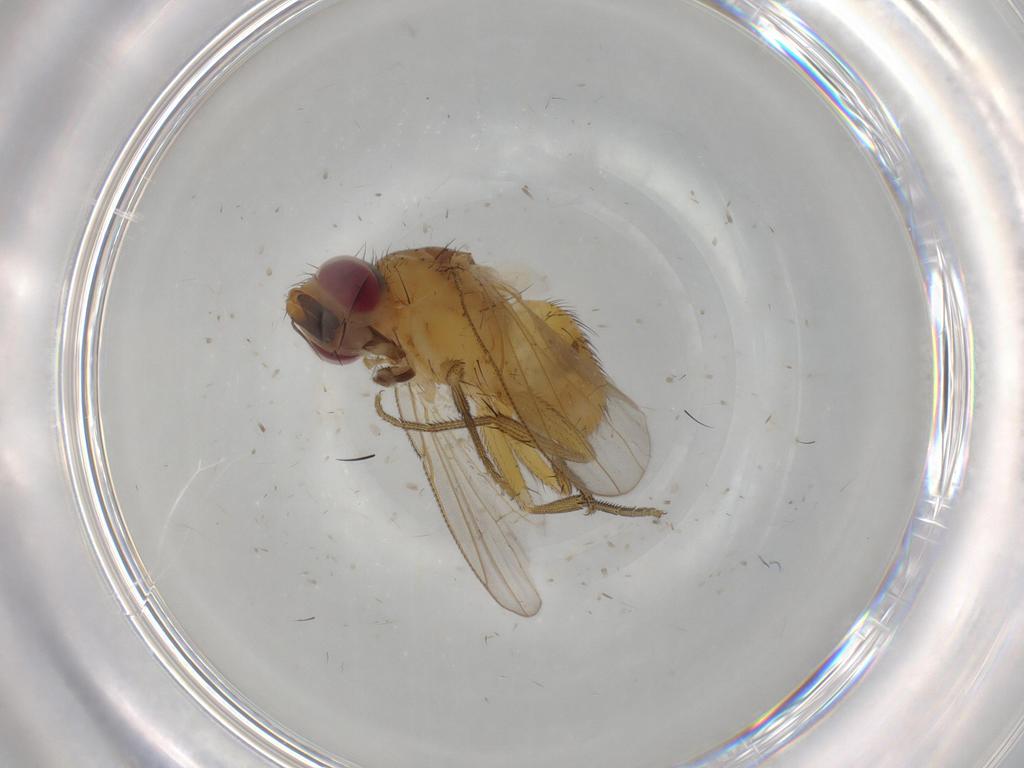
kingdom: Animalia
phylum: Arthropoda
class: Insecta
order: Diptera
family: Muscidae
